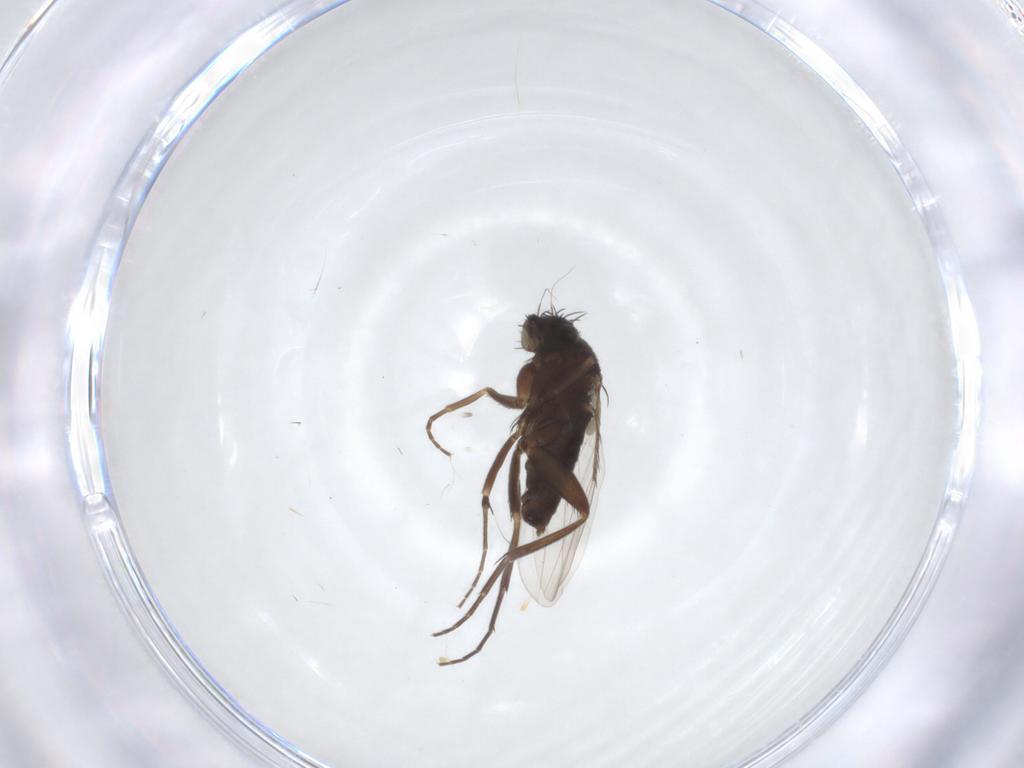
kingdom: Animalia
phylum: Arthropoda
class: Insecta
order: Diptera
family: Phoridae
